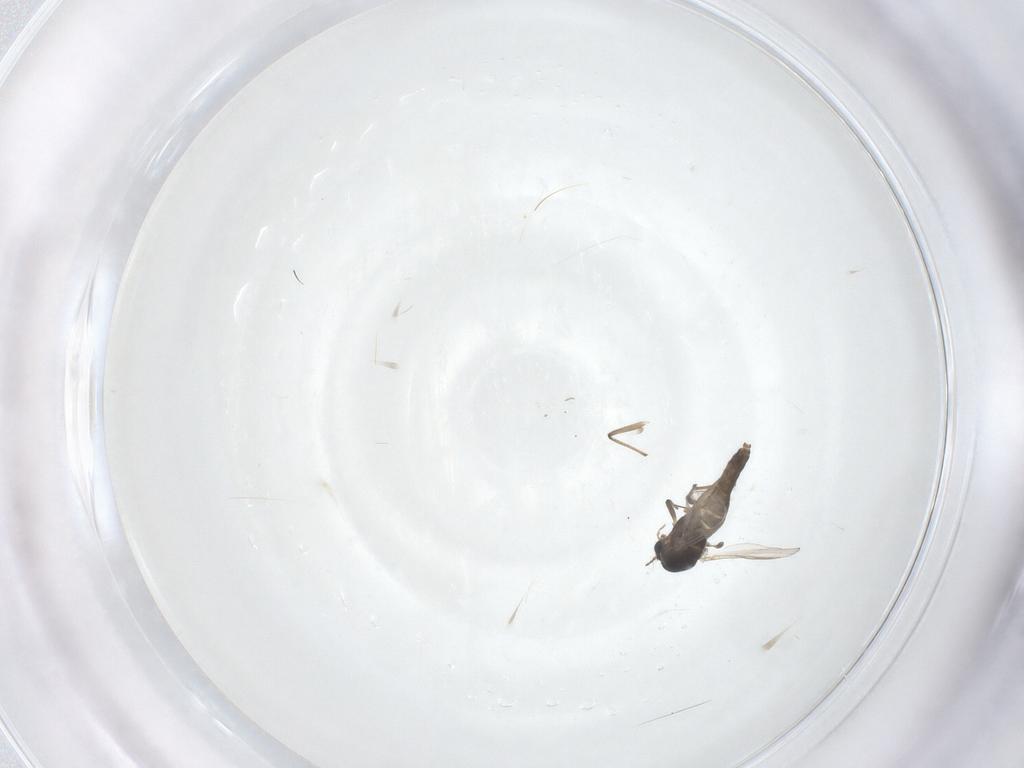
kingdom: Animalia
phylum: Arthropoda
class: Insecta
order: Diptera
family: Chironomidae
